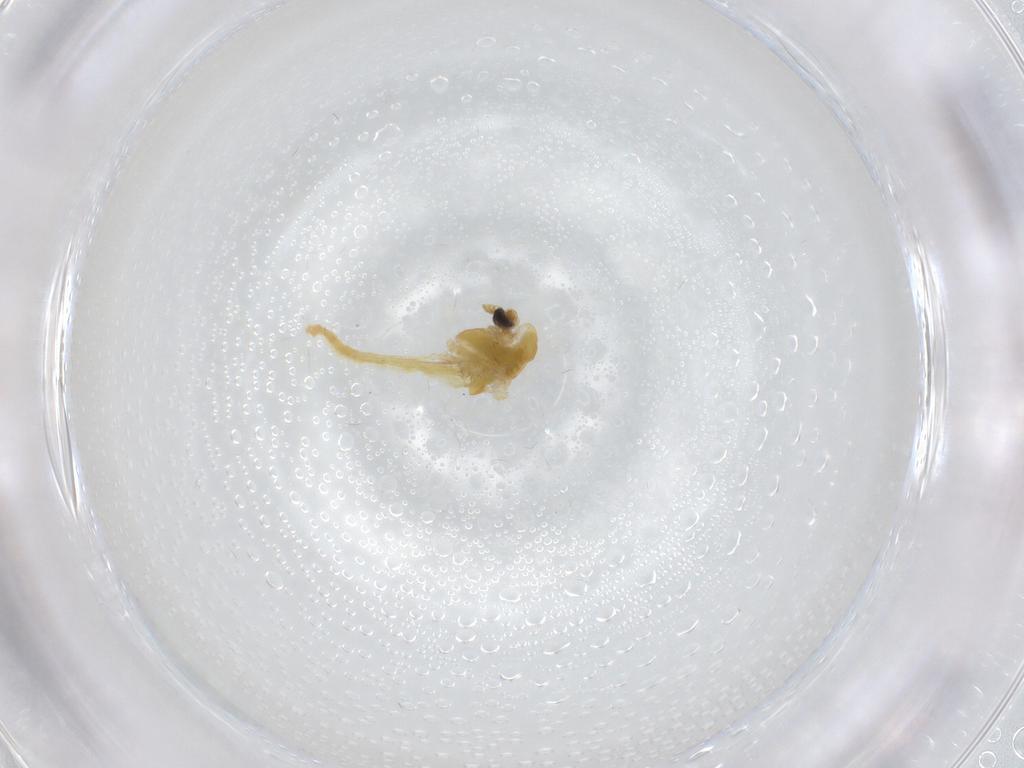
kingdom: Animalia
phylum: Arthropoda
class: Insecta
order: Diptera
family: Chironomidae
